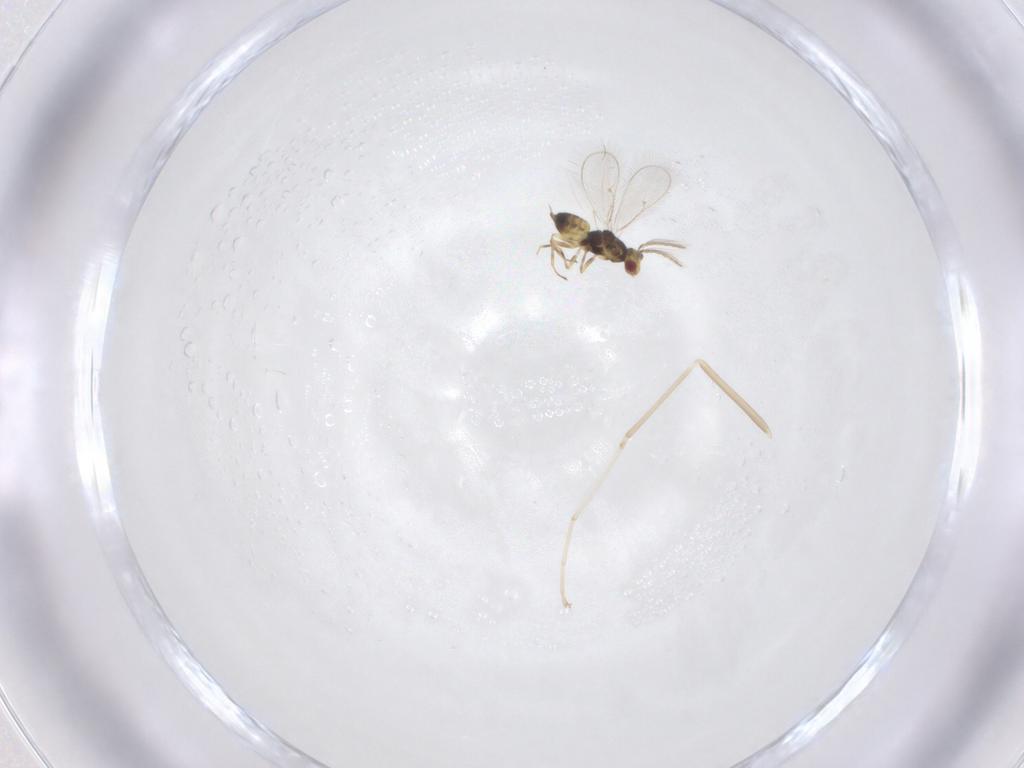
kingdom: Animalia
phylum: Arthropoda
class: Insecta
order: Hymenoptera
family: Eulophidae
